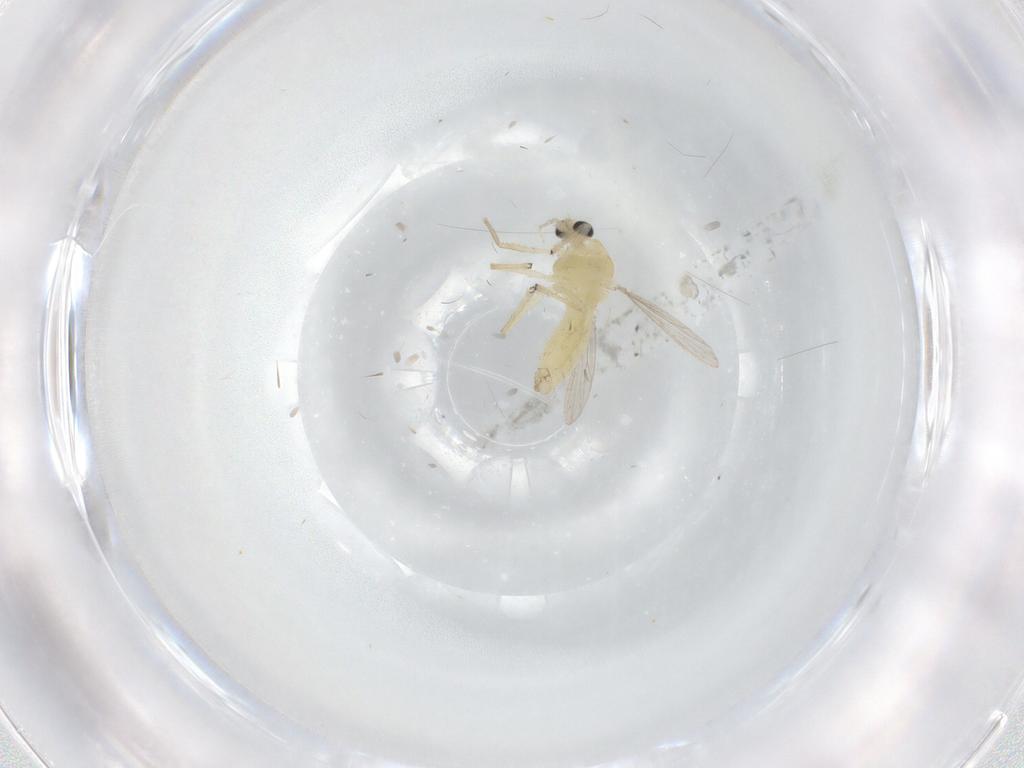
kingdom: Animalia
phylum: Arthropoda
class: Insecta
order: Diptera
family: Chironomidae
